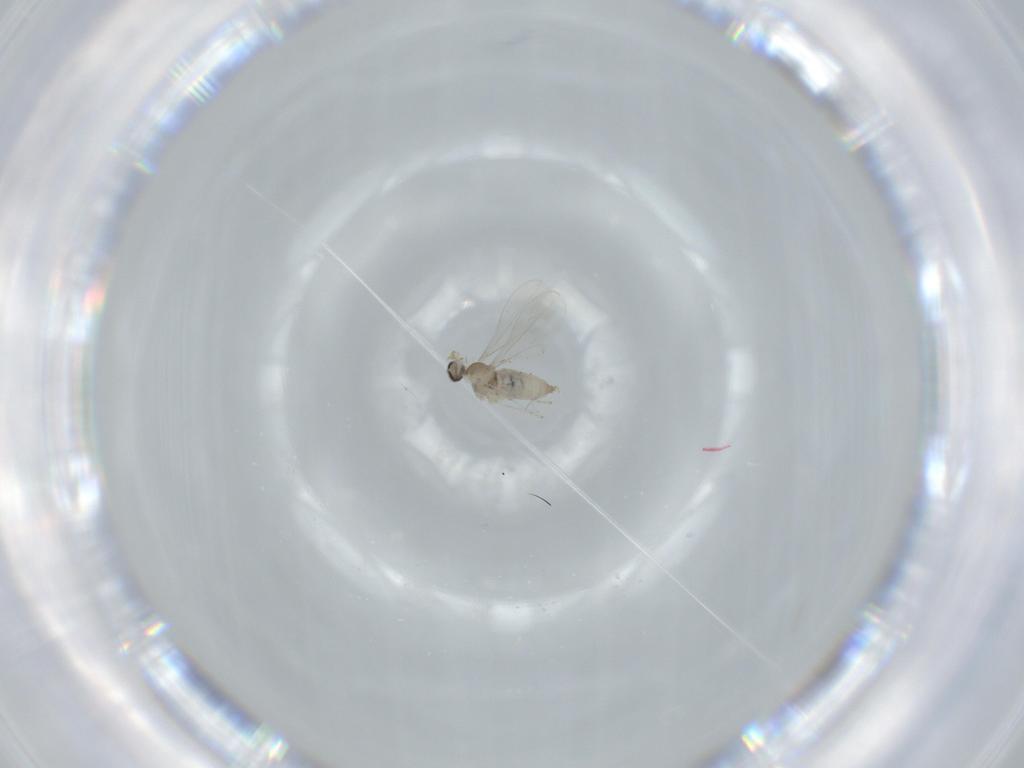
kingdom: Animalia
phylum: Arthropoda
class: Insecta
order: Diptera
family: Cecidomyiidae
